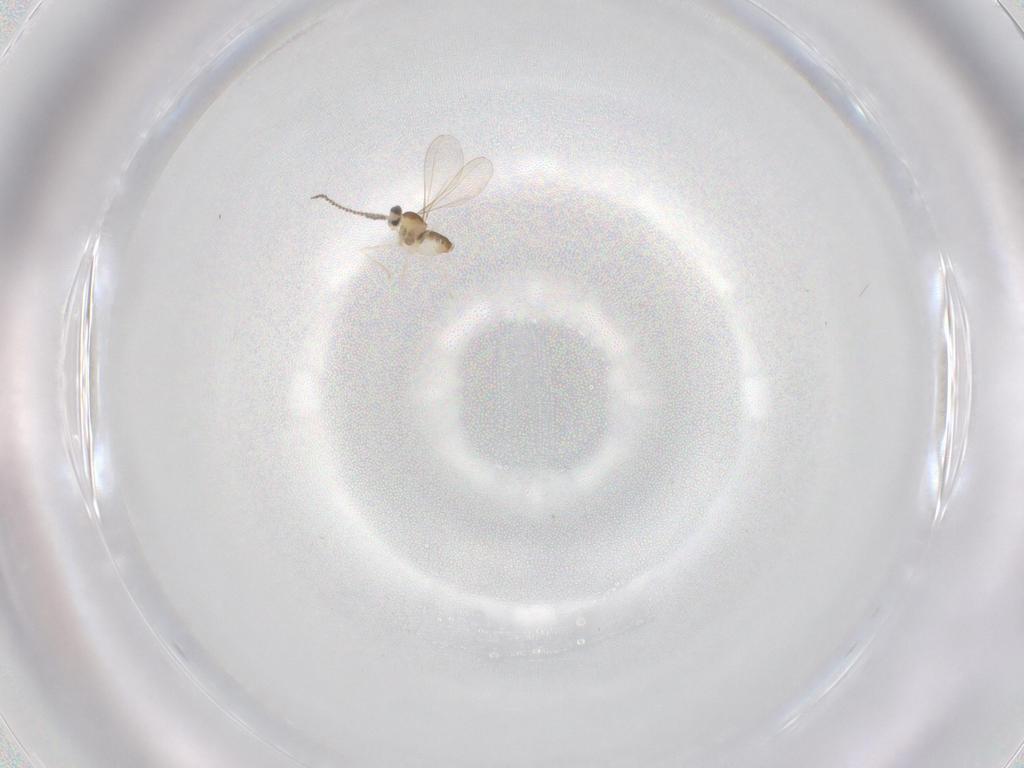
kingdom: Animalia
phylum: Arthropoda
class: Insecta
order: Diptera
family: Cecidomyiidae
